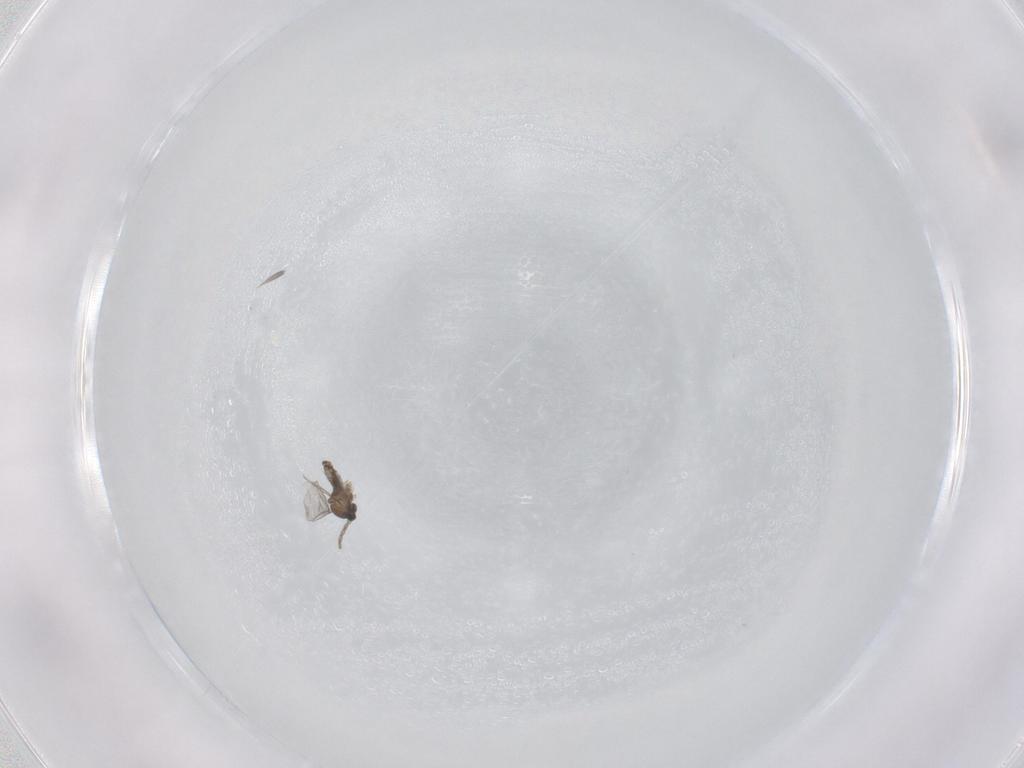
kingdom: Animalia
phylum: Arthropoda
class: Insecta
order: Diptera
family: Cecidomyiidae
